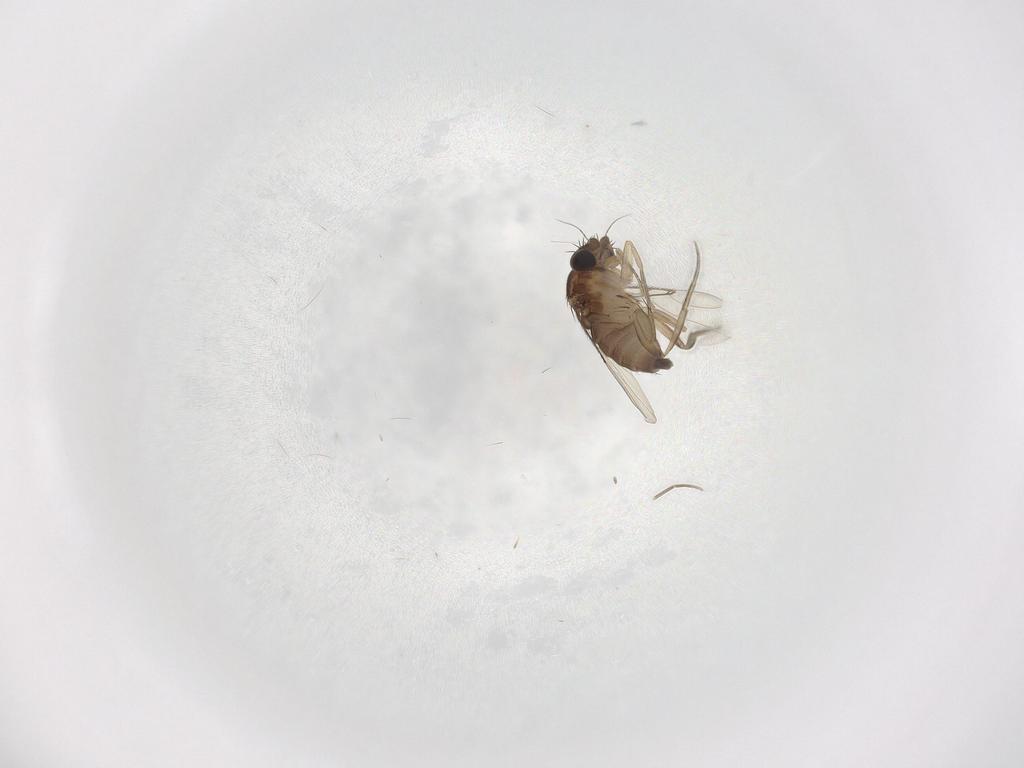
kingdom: Animalia
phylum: Arthropoda
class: Insecta
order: Diptera
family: Phoridae
